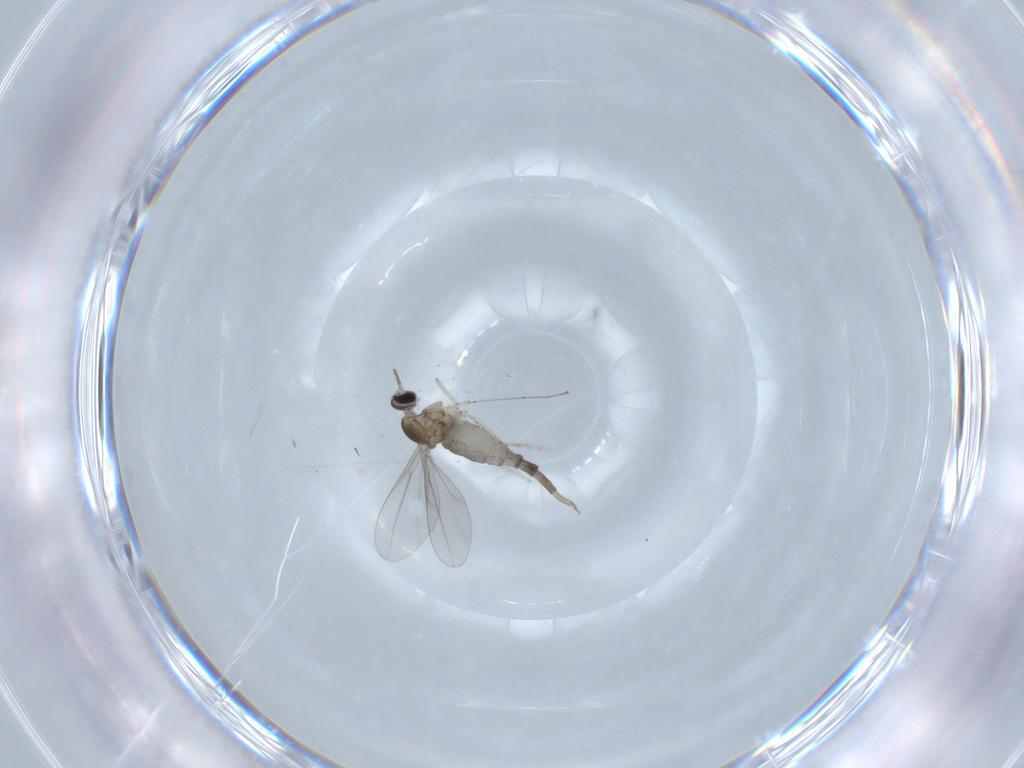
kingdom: Animalia
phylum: Arthropoda
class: Insecta
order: Diptera
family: Cecidomyiidae
